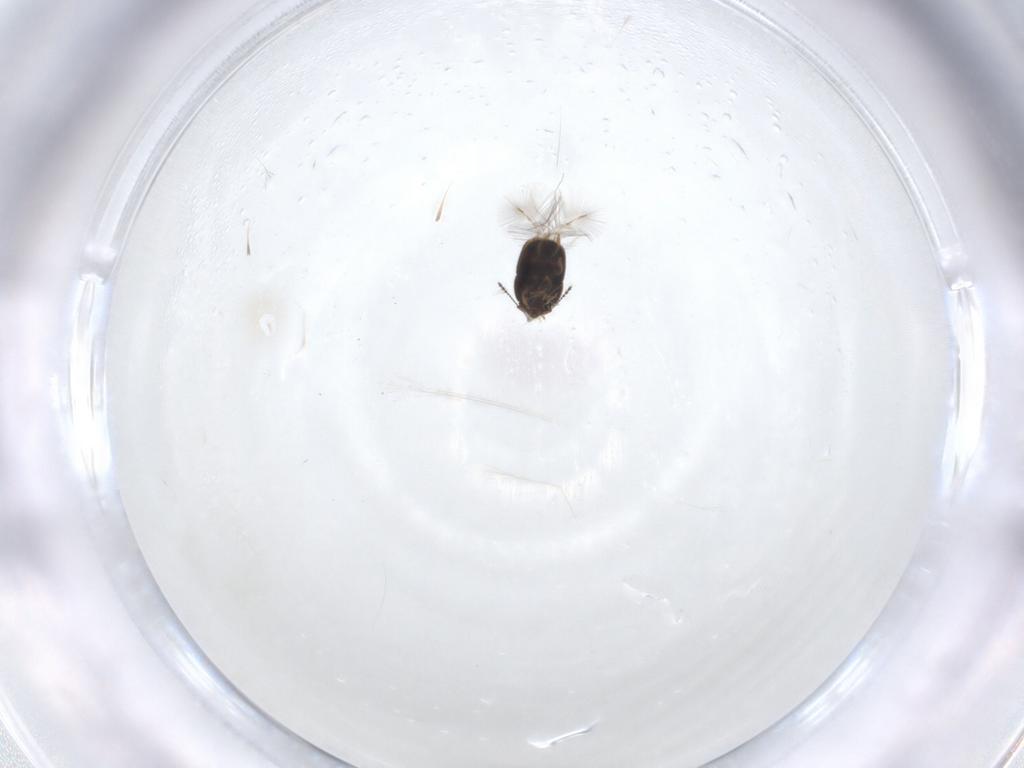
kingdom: Animalia
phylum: Arthropoda
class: Insecta
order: Coleoptera
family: Ptiliidae
